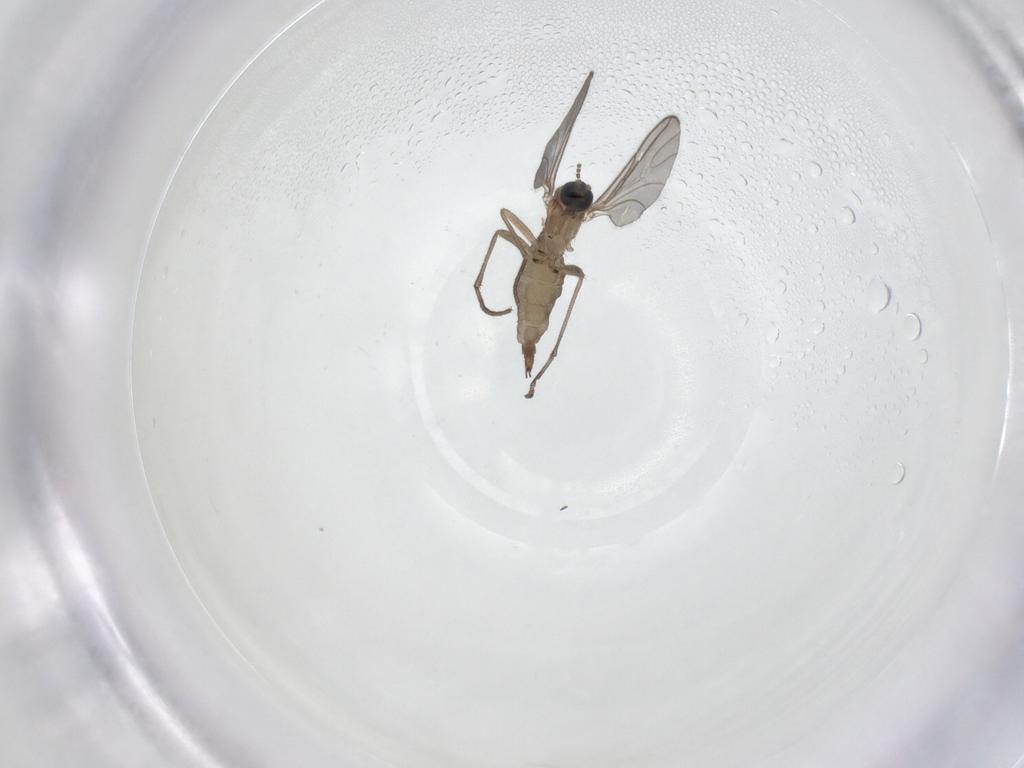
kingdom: Animalia
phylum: Arthropoda
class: Insecta
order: Diptera
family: Sciaridae
